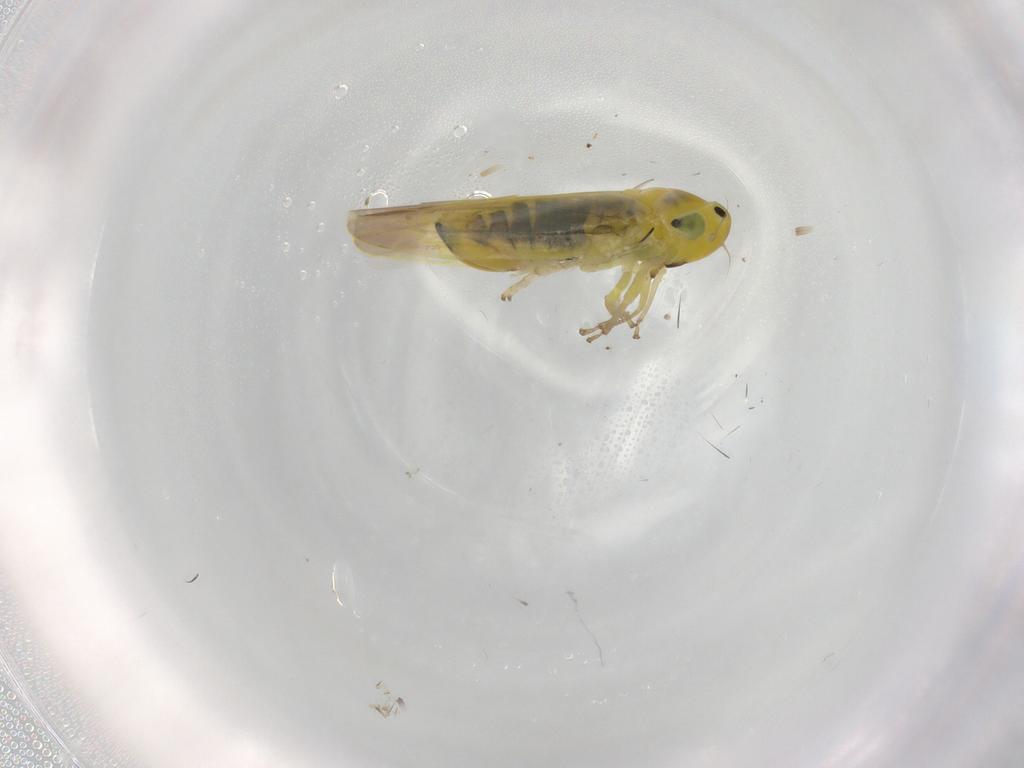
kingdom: Animalia
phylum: Arthropoda
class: Insecta
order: Hemiptera
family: Cicadellidae
